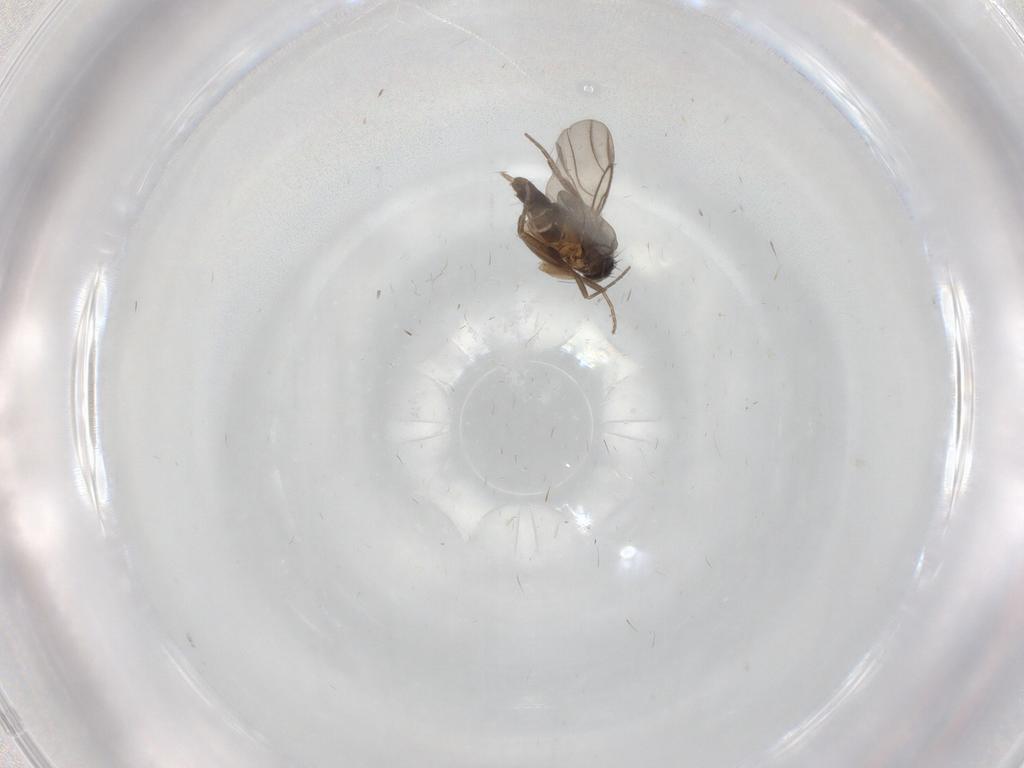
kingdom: Animalia
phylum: Arthropoda
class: Insecta
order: Diptera
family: Phoridae
